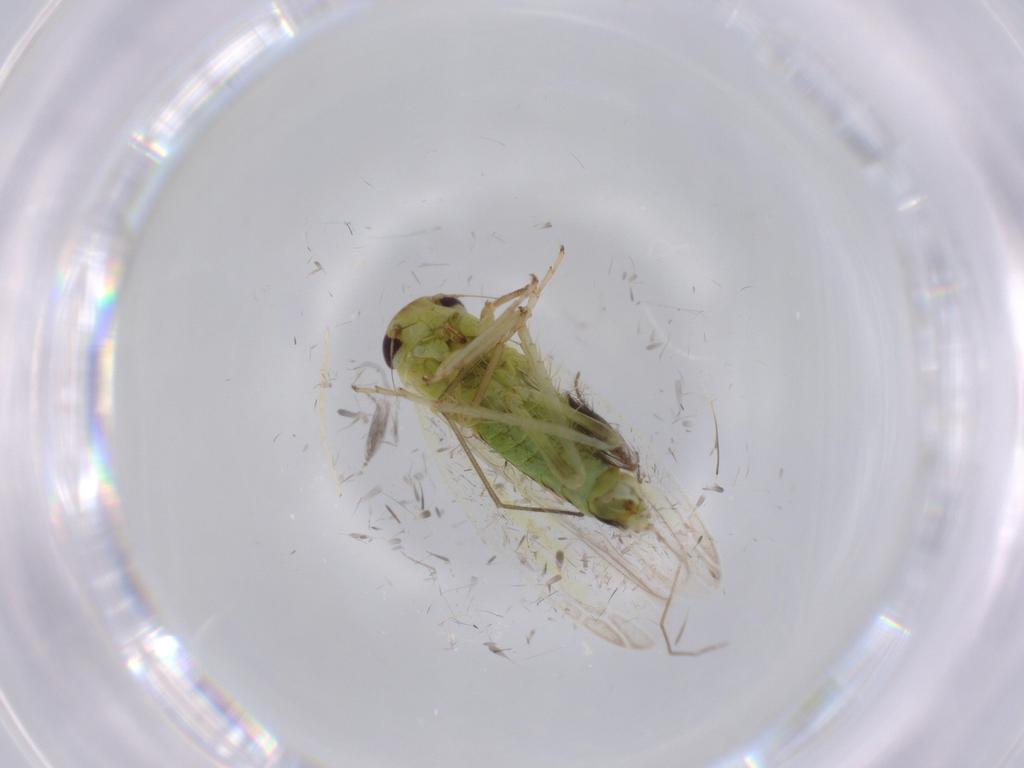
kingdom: Animalia
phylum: Arthropoda
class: Insecta
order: Hemiptera
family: Cicadellidae
